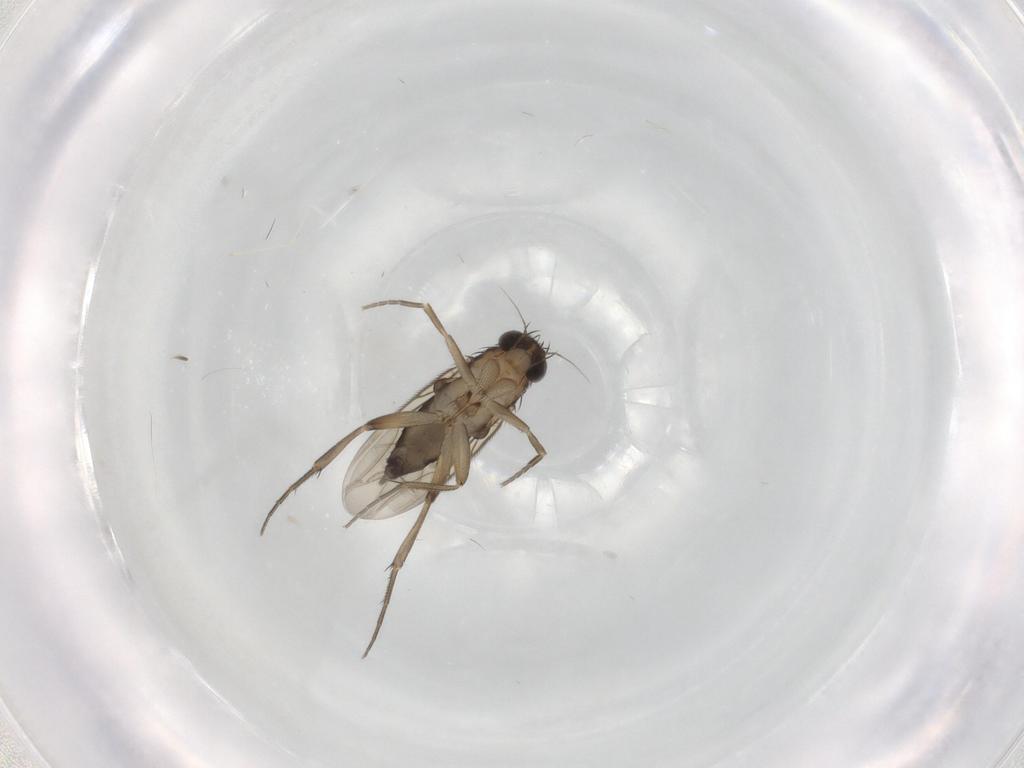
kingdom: Animalia
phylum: Arthropoda
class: Insecta
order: Diptera
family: Phoridae
